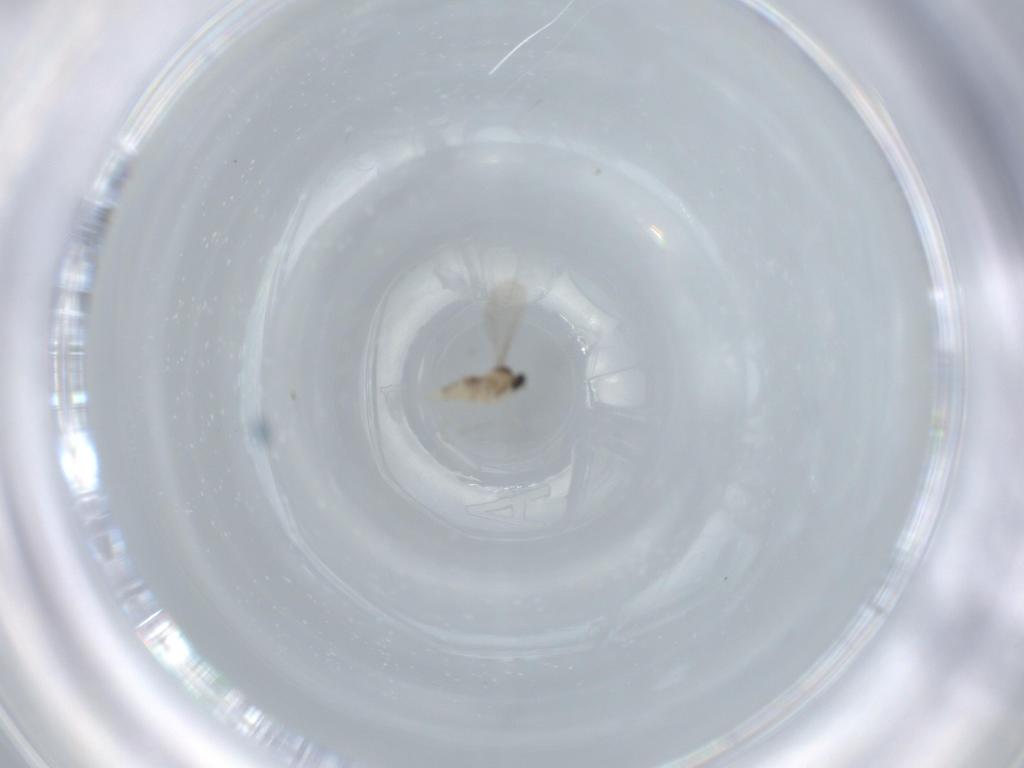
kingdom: Animalia
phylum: Arthropoda
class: Insecta
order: Diptera
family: Cecidomyiidae
